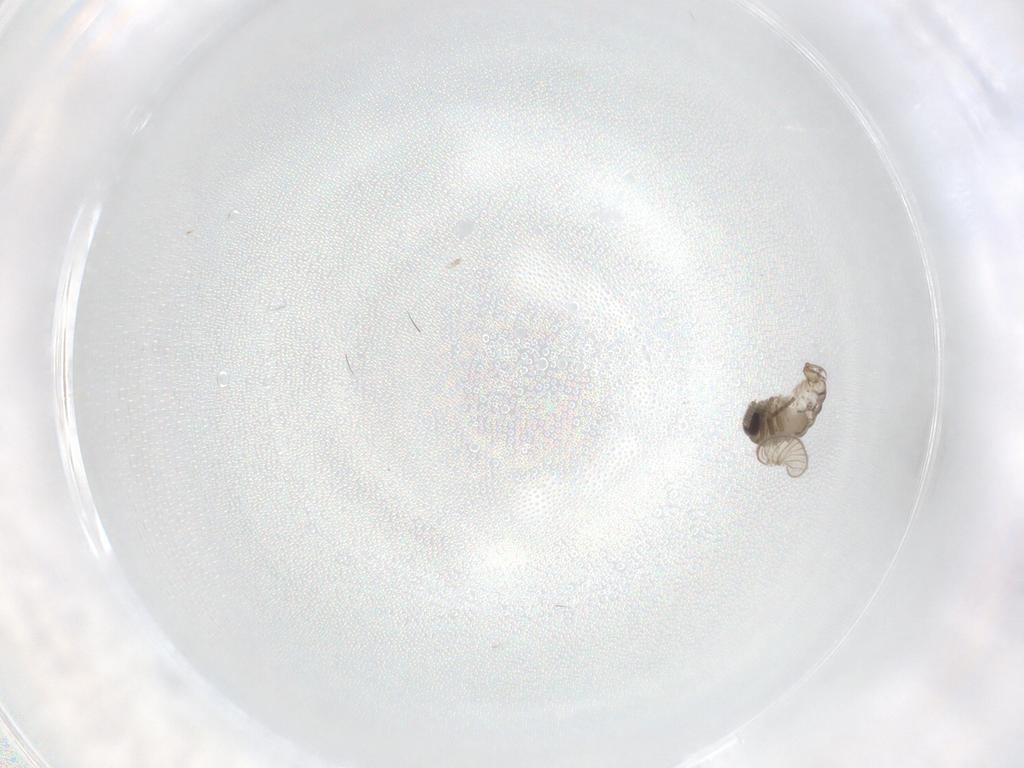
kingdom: Animalia
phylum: Arthropoda
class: Insecta
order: Diptera
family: Psychodidae
